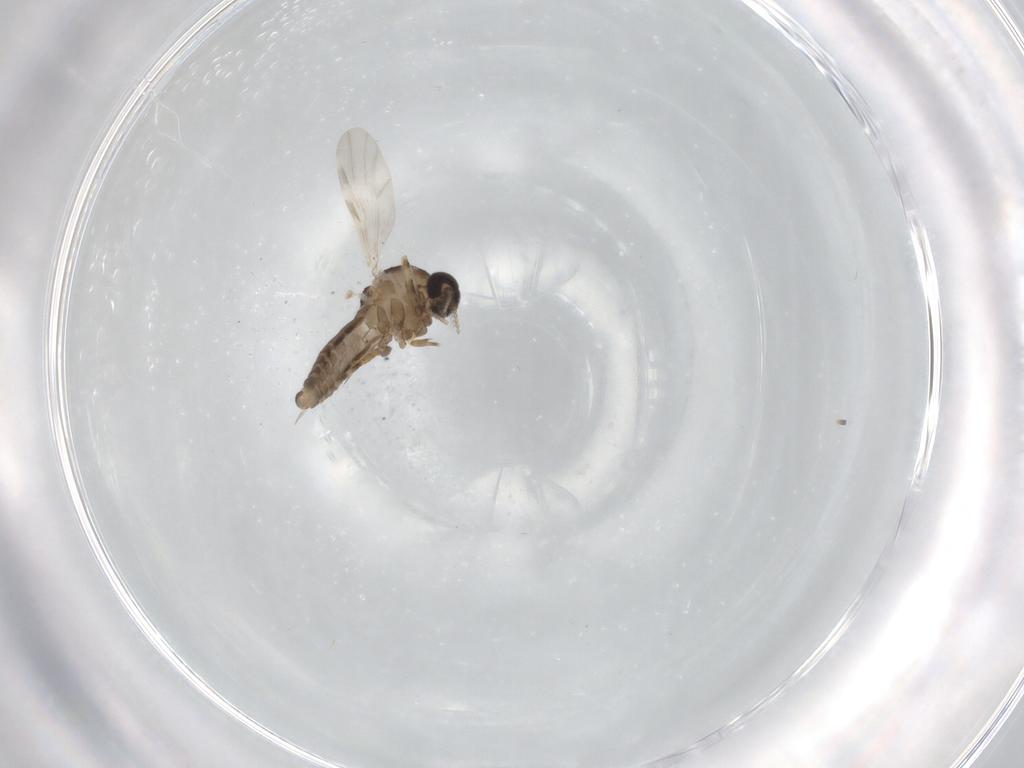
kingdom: Animalia
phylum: Arthropoda
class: Insecta
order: Diptera
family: Ceratopogonidae
